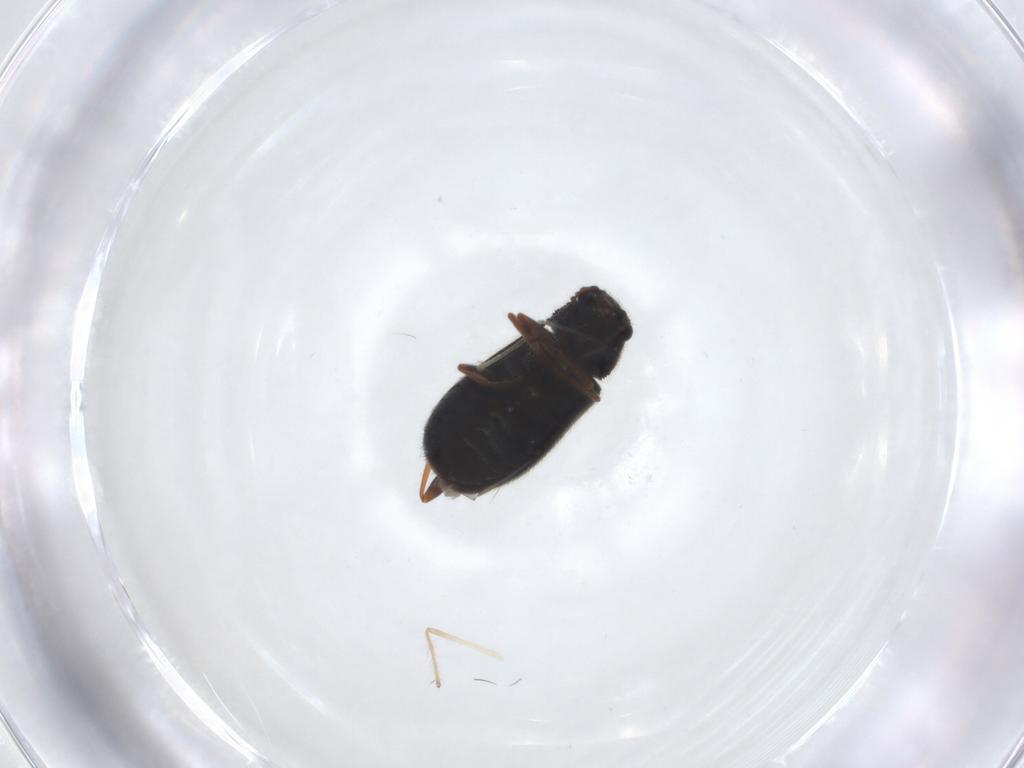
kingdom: Animalia
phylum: Arthropoda
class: Insecta
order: Coleoptera
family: Melyridae
